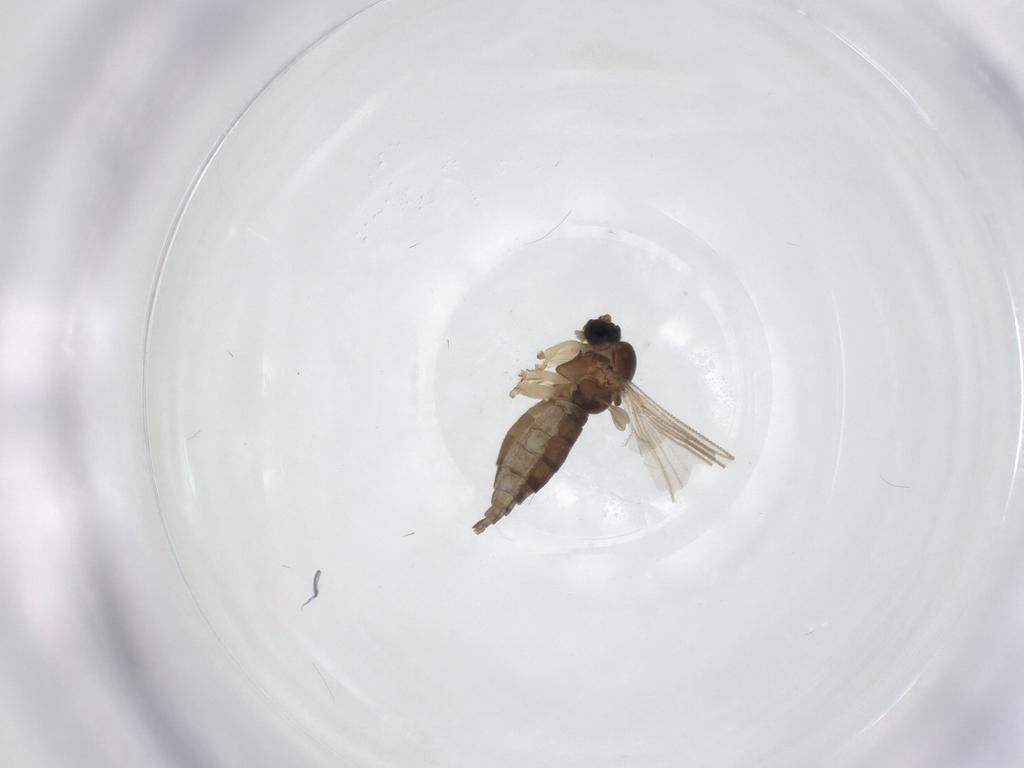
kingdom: Animalia
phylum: Arthropoda
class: Insecta
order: Diptera
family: Sciaridae
